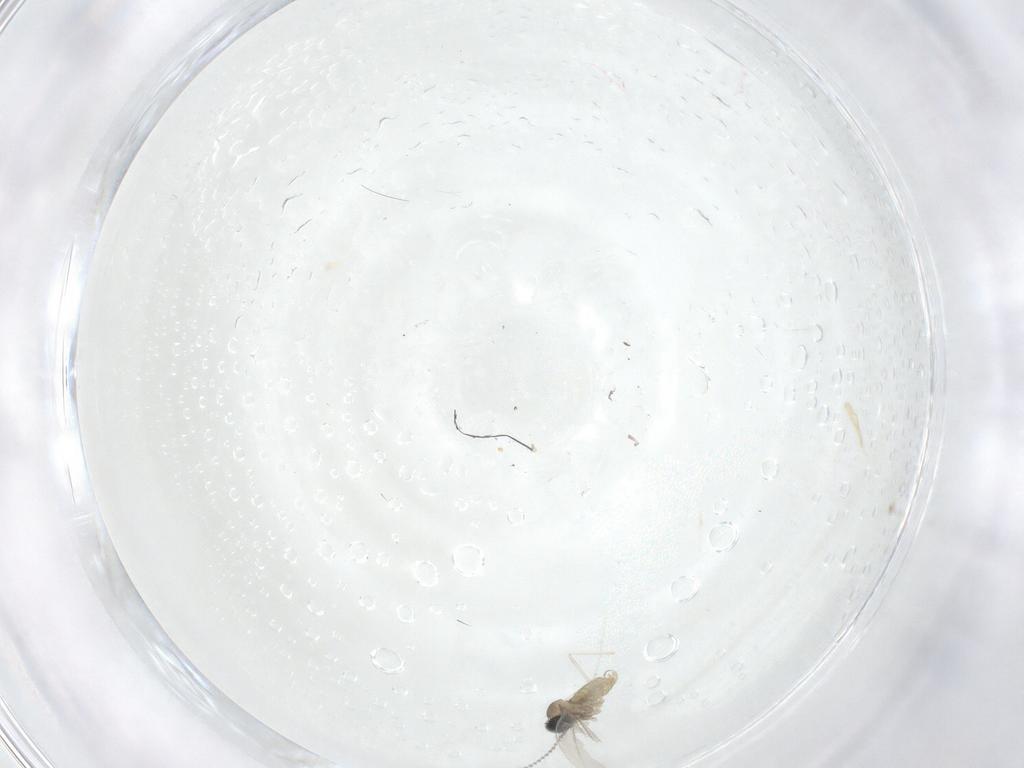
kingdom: Animalia
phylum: Arthropoda
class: Insecta
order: Diptera
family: Cecidomyiidae
